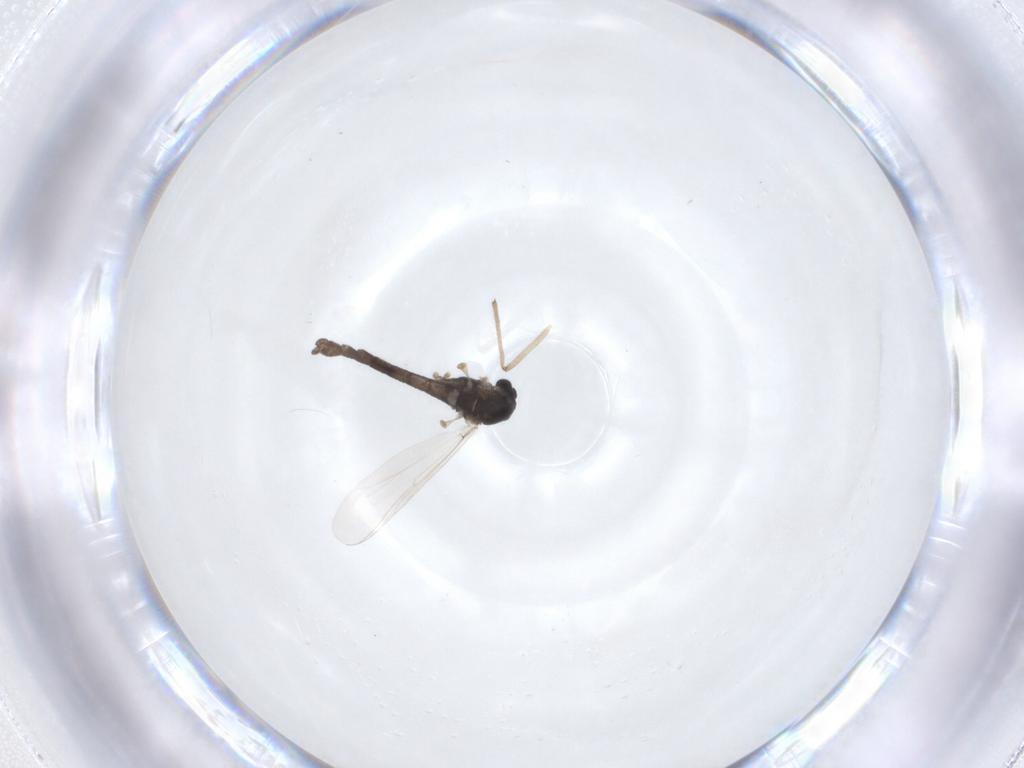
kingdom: Animalia
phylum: Arthropoda
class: Insecta
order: Diptera
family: Chironomidae
